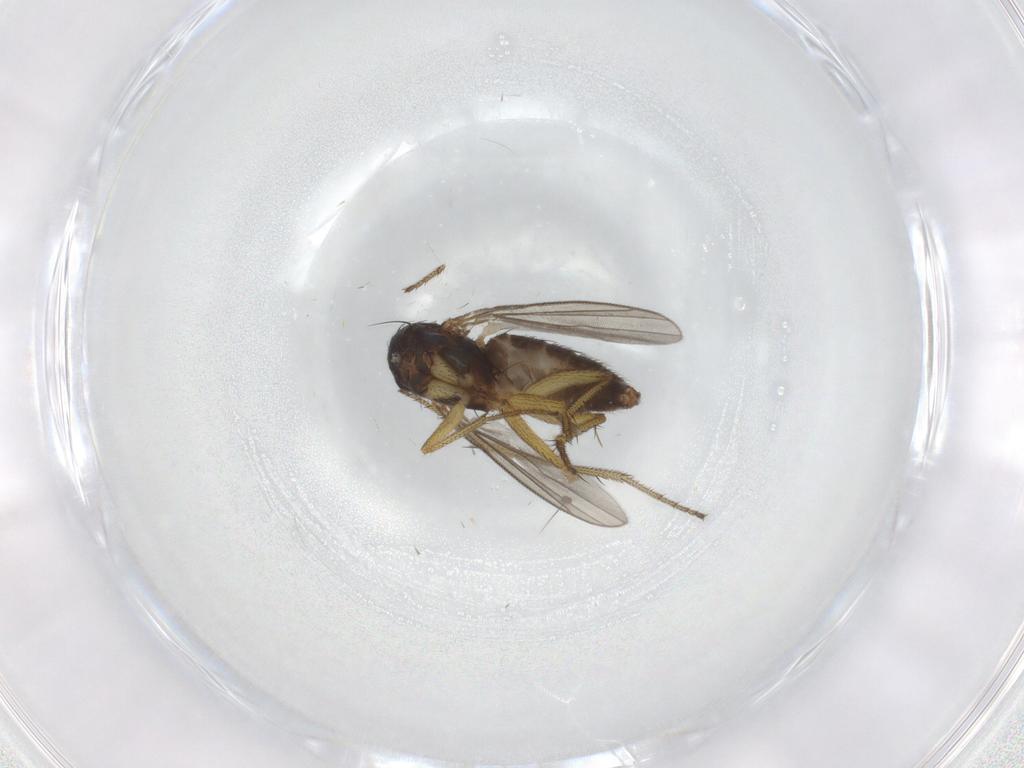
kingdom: Animalia
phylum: Arthropoda
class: Insecta
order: Diptera
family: Dolichopodidae
